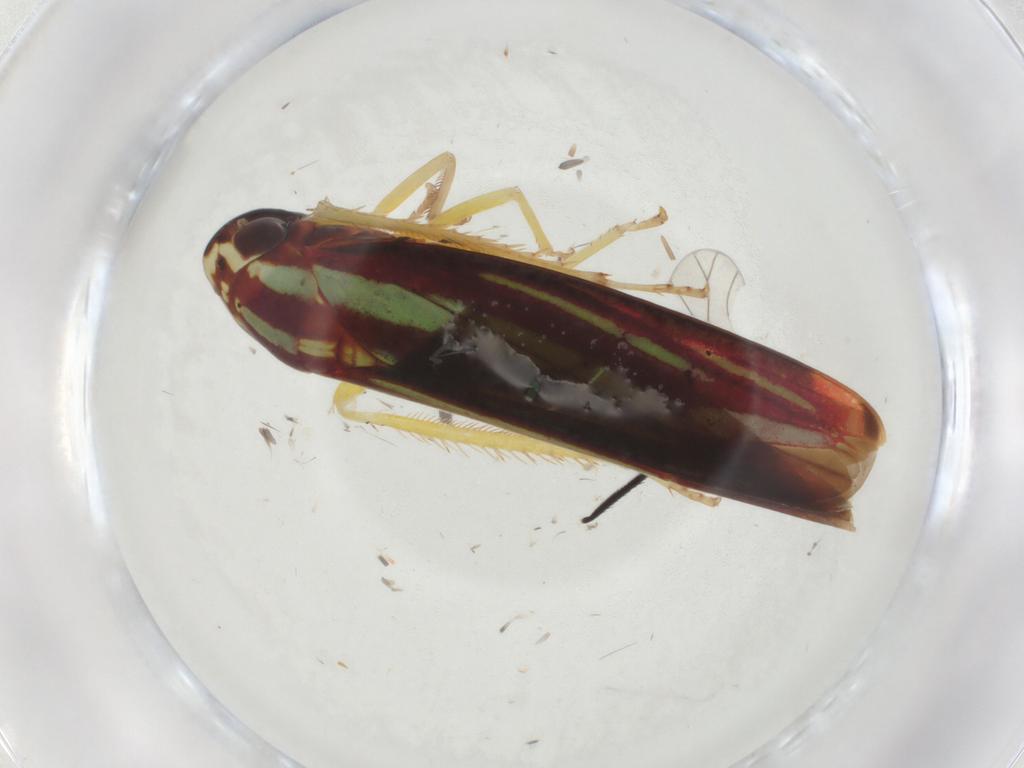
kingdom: Animalia
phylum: Arthropoda
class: Insecta
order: Hemiptera
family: Cicadellidae
